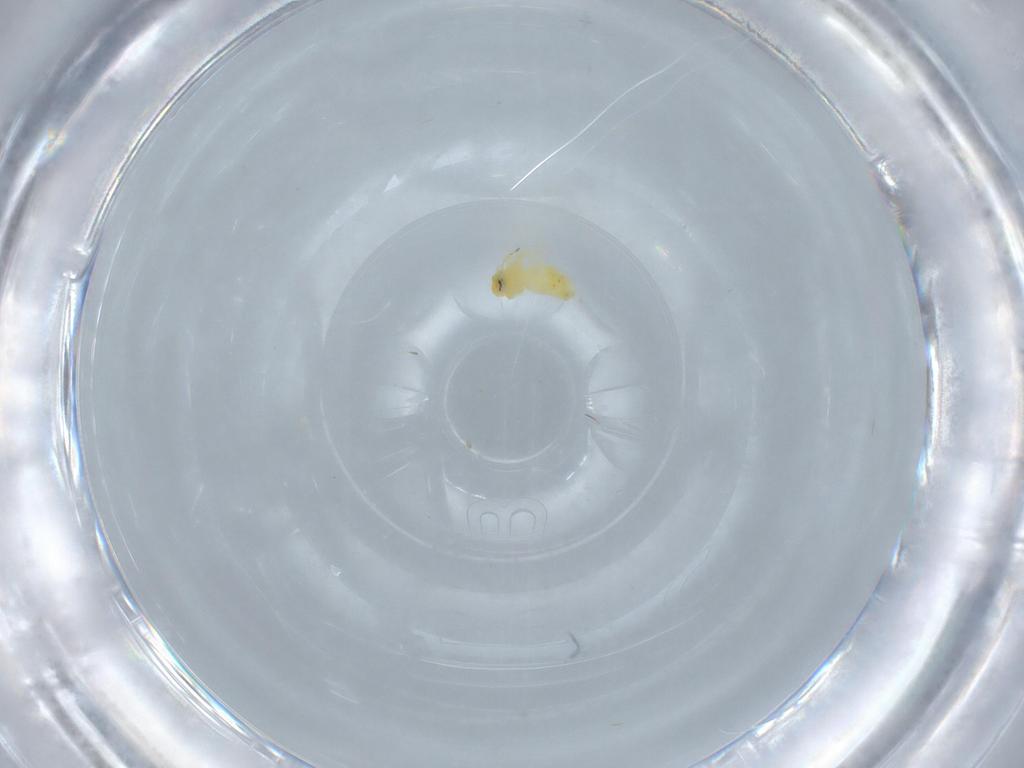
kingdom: Animalia
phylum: Arthropoda
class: Insecta
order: Hemiptera
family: Aleyrodidae
